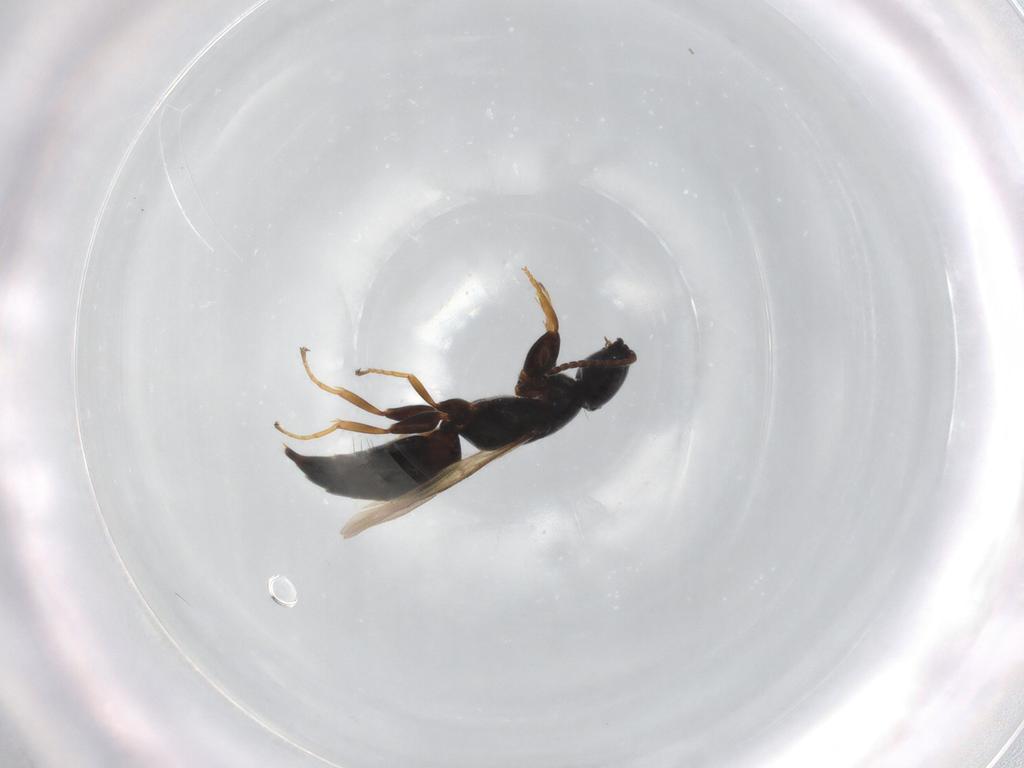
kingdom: Animalia
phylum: Arthropoda
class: Insecta
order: Hymenoptera
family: Bethylidae
